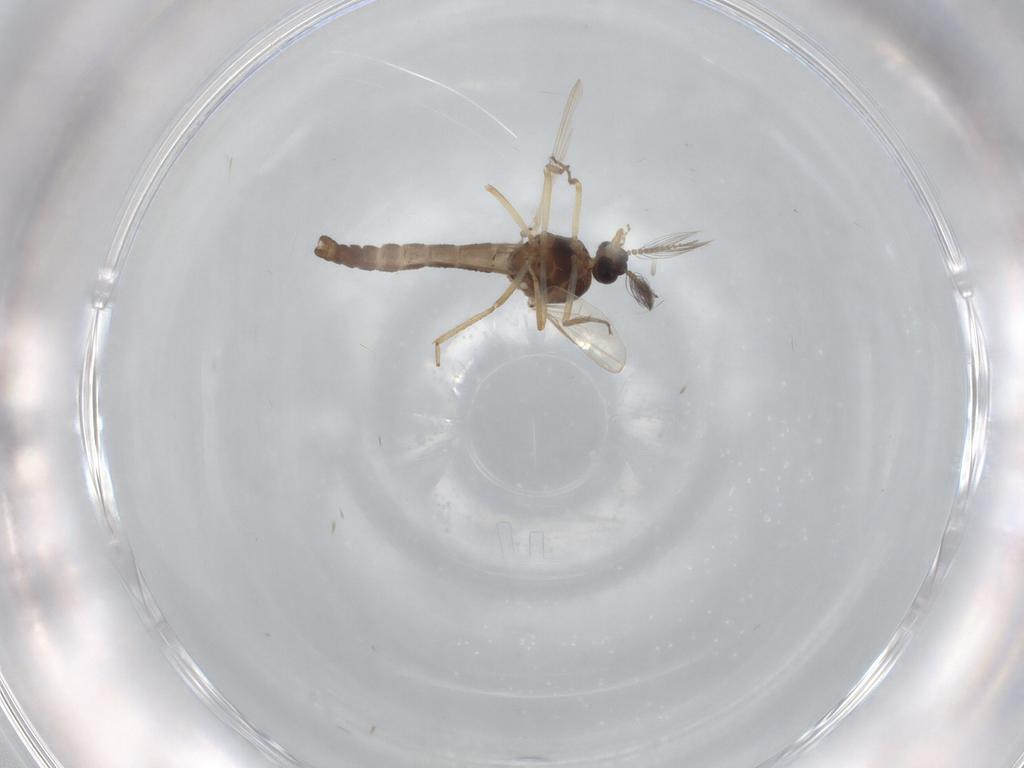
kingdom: Animalia
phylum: Arthropoda
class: Insecta
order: Diptera
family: Ceratopogonidae
